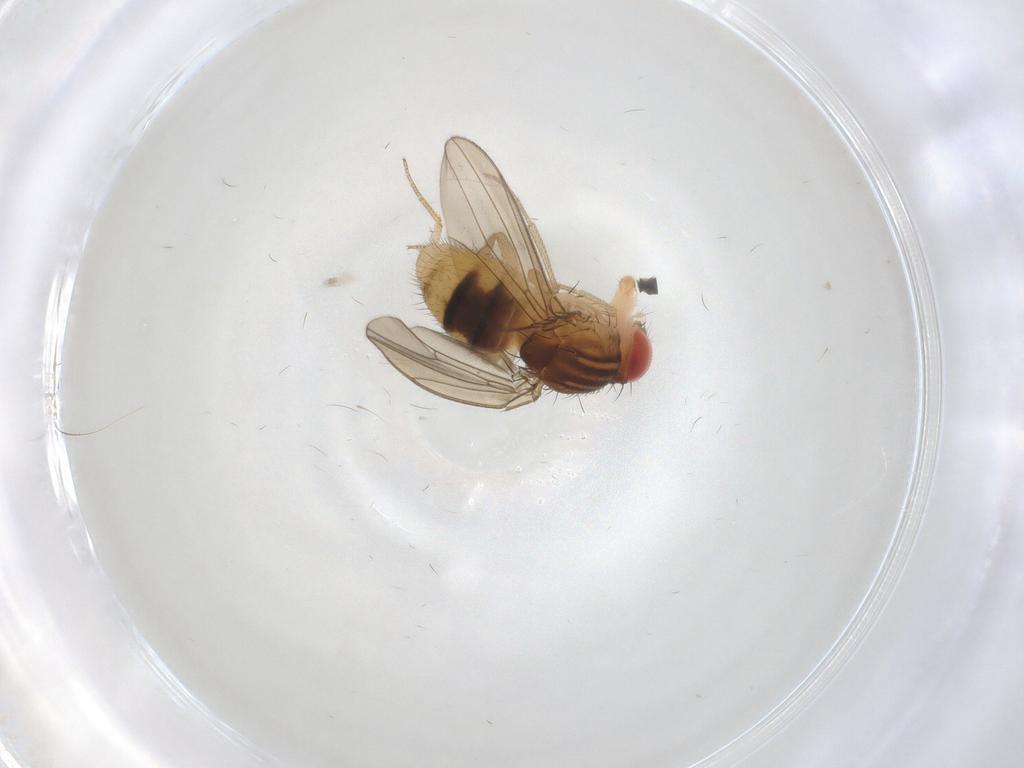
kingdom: Animalia
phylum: Arthropoda
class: Insecta
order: Diptera
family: Drosophilidae
